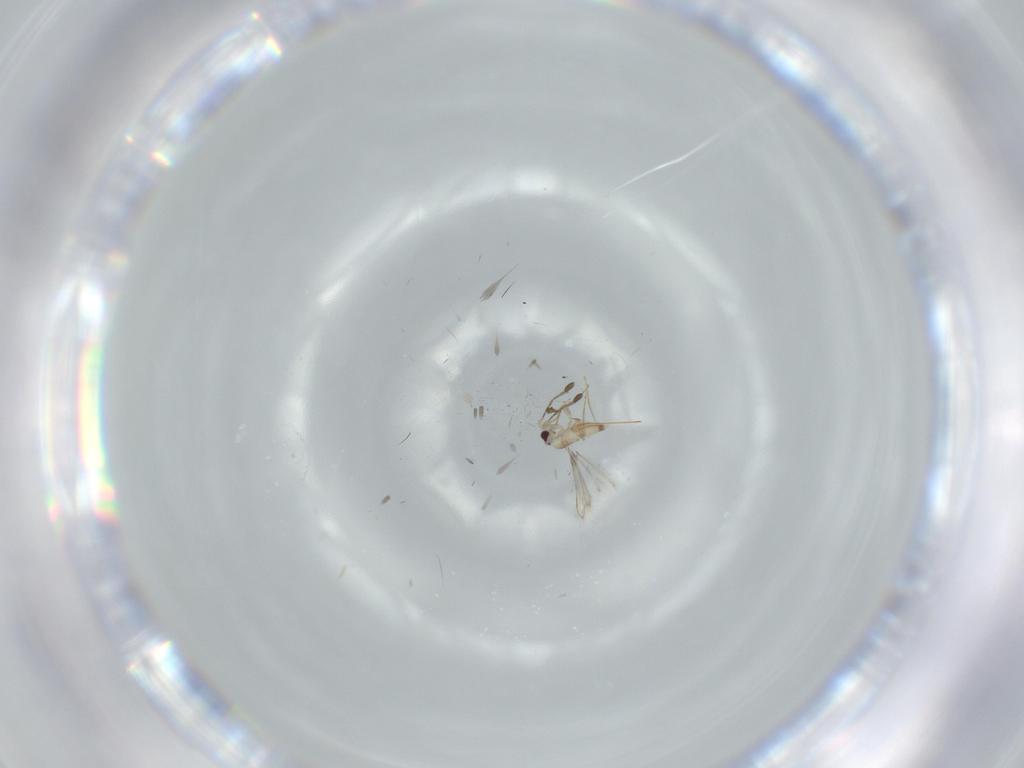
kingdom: Animalia
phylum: Arthropoda
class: Insecta
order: Hymenoptera
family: Mymaridae
